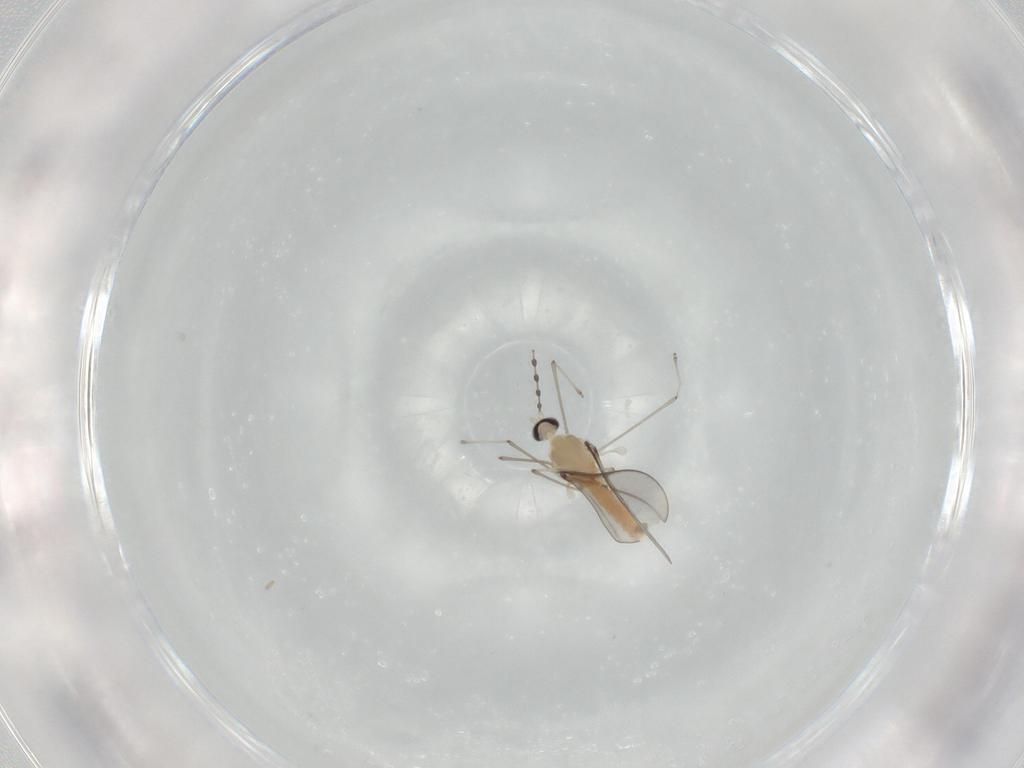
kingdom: Animalia
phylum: Arthropoda
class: Insecta
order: Diptera
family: Cecidomyiidae
